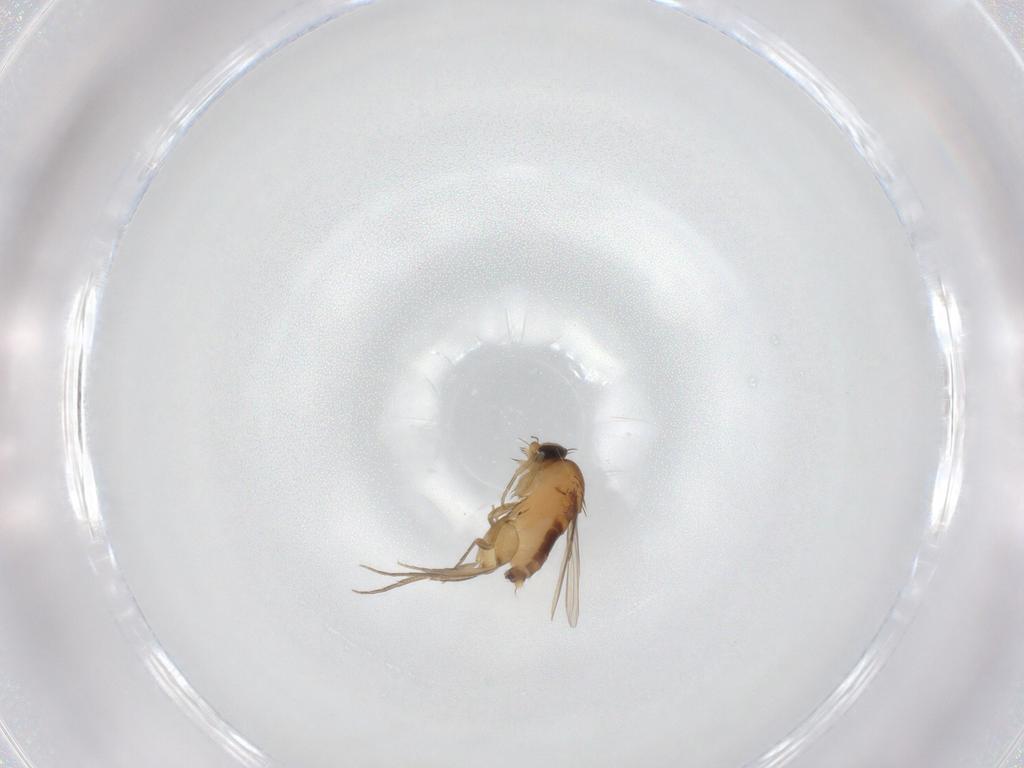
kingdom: Animalia
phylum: Arthropoda
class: Insecta
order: Diptera
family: Phoridae
